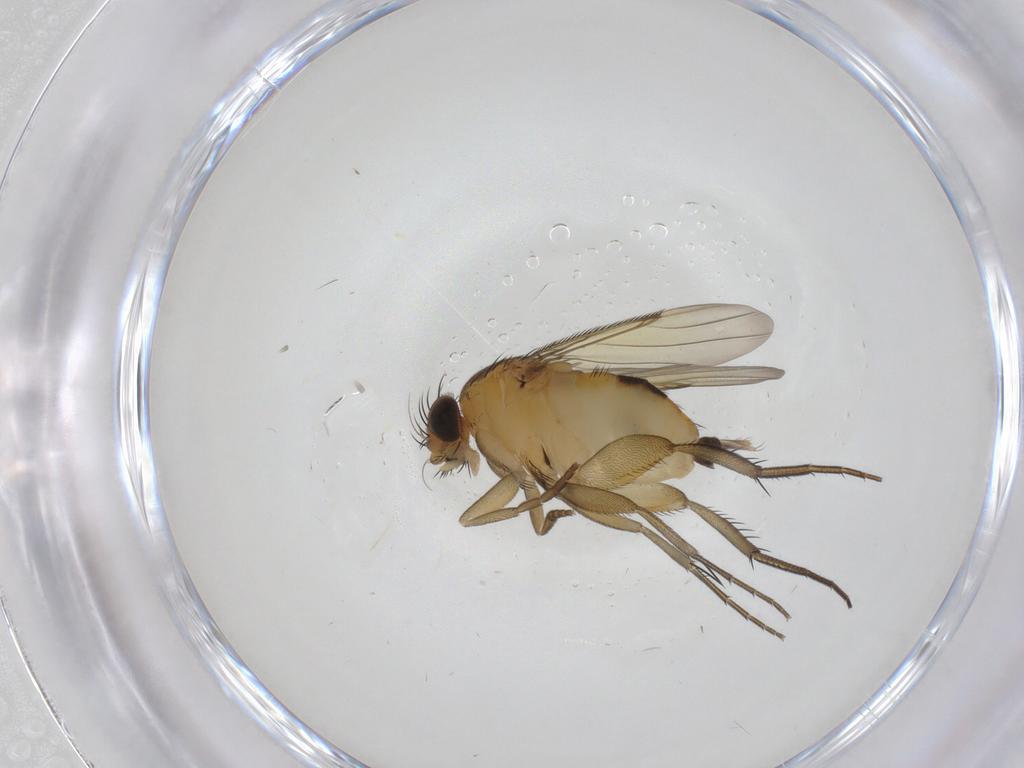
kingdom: Animalia
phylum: Arthropoda
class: Insecta
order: Diptera
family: Phoridae
